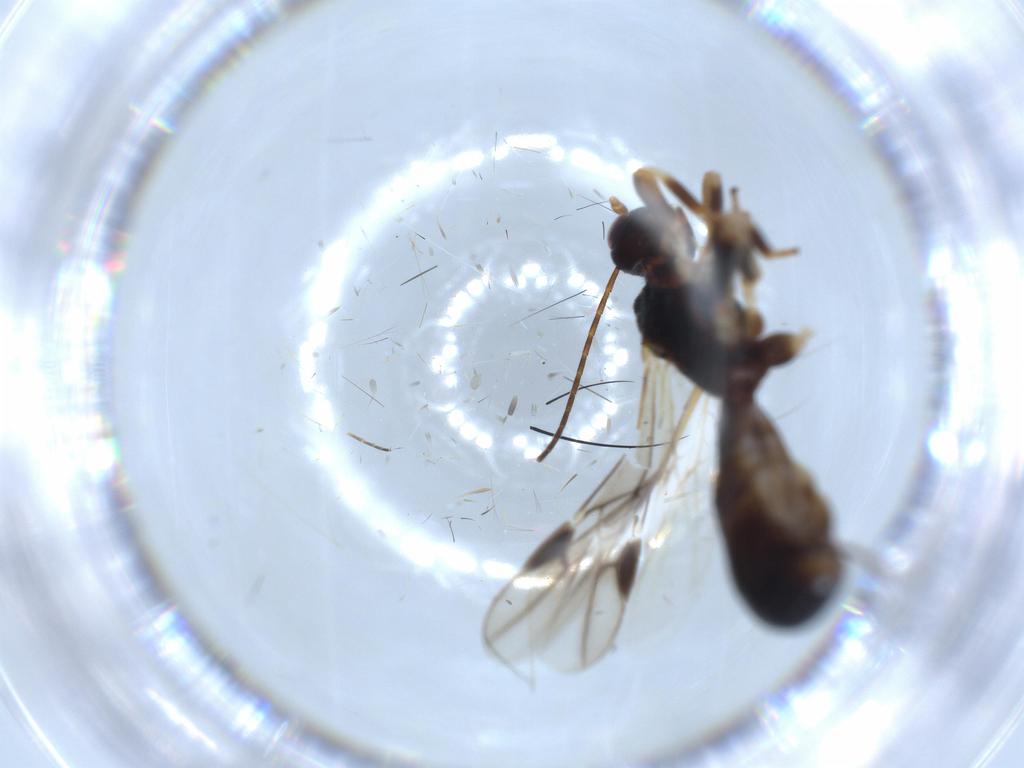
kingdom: Animalia
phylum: Arthropoda
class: Insecta
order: Hymenoptera
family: Braconidae
